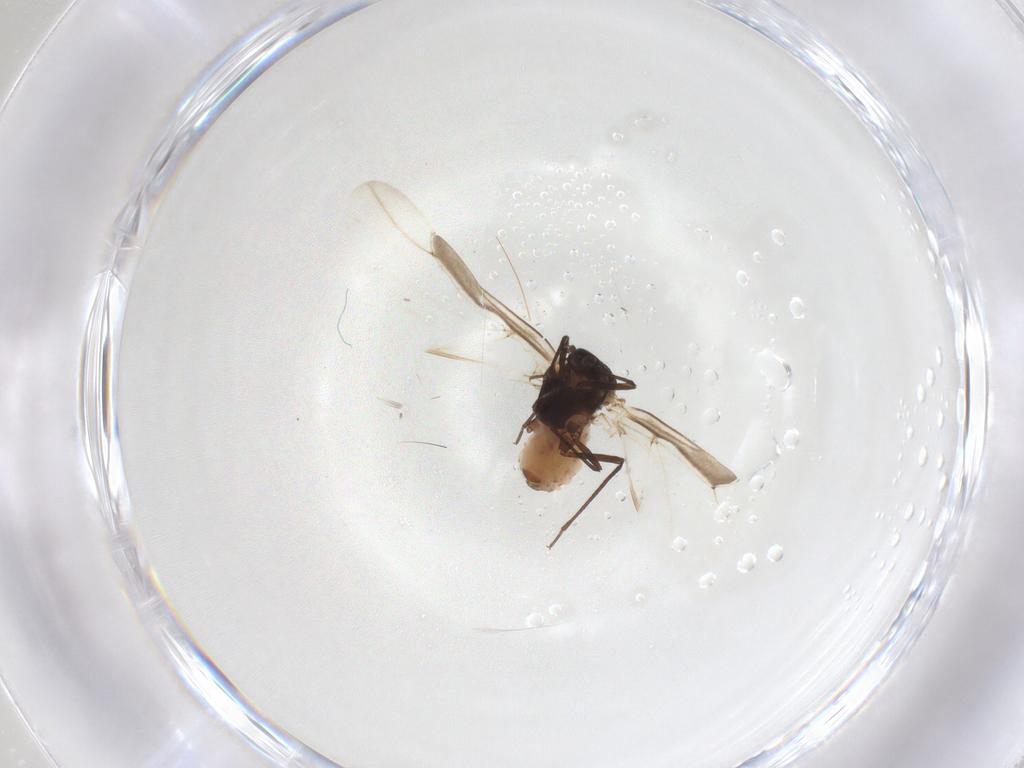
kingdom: Animalia
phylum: Arthropoda
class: Insecta
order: Hemiptera
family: Aphididae
